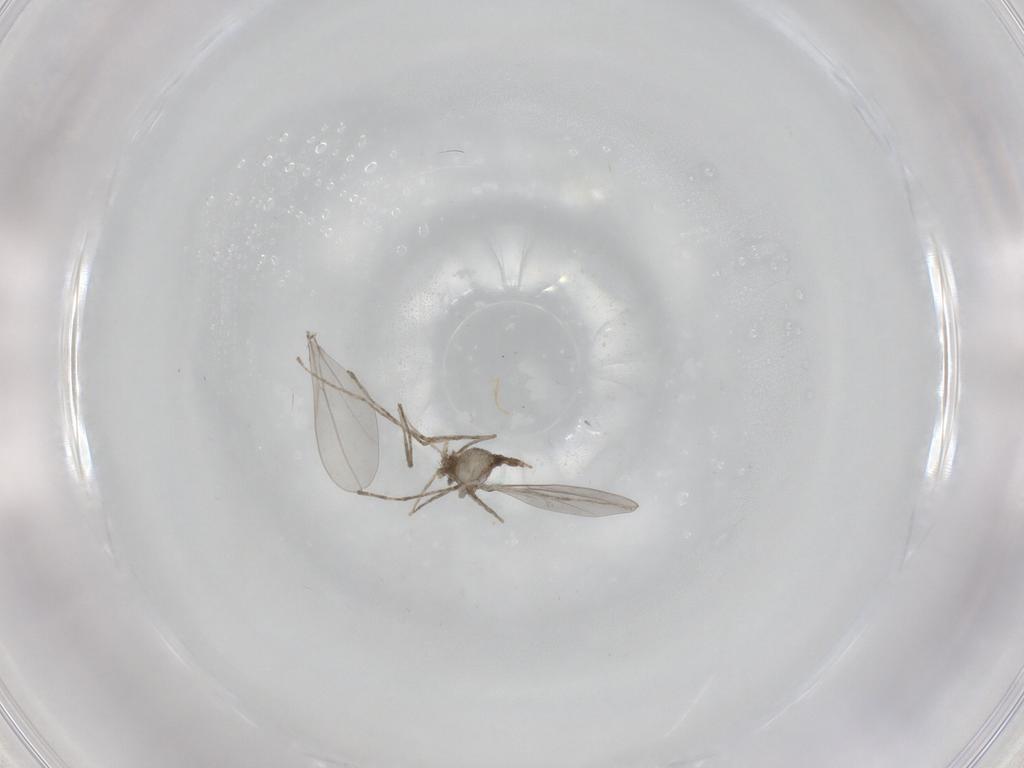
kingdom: Animalia
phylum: Arthropoda
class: Insecta
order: Diptera
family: Cecidomyiidae
